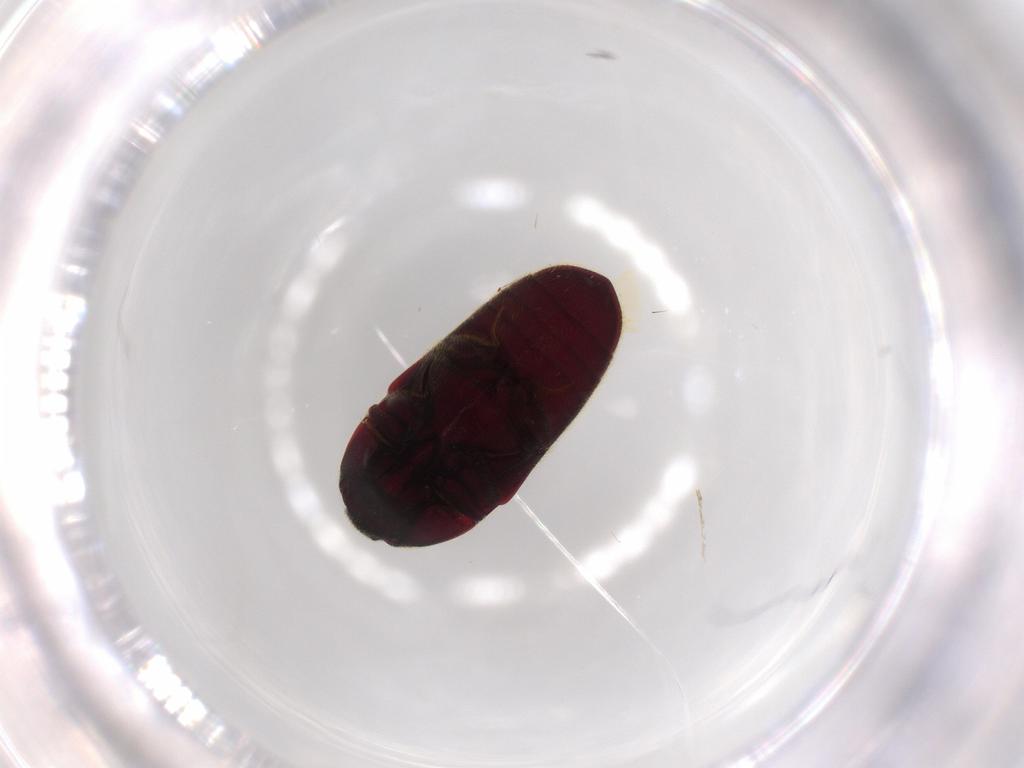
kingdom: Animalia
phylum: Arthropoda
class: Insecta
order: Coleoptera
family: Throscidae
